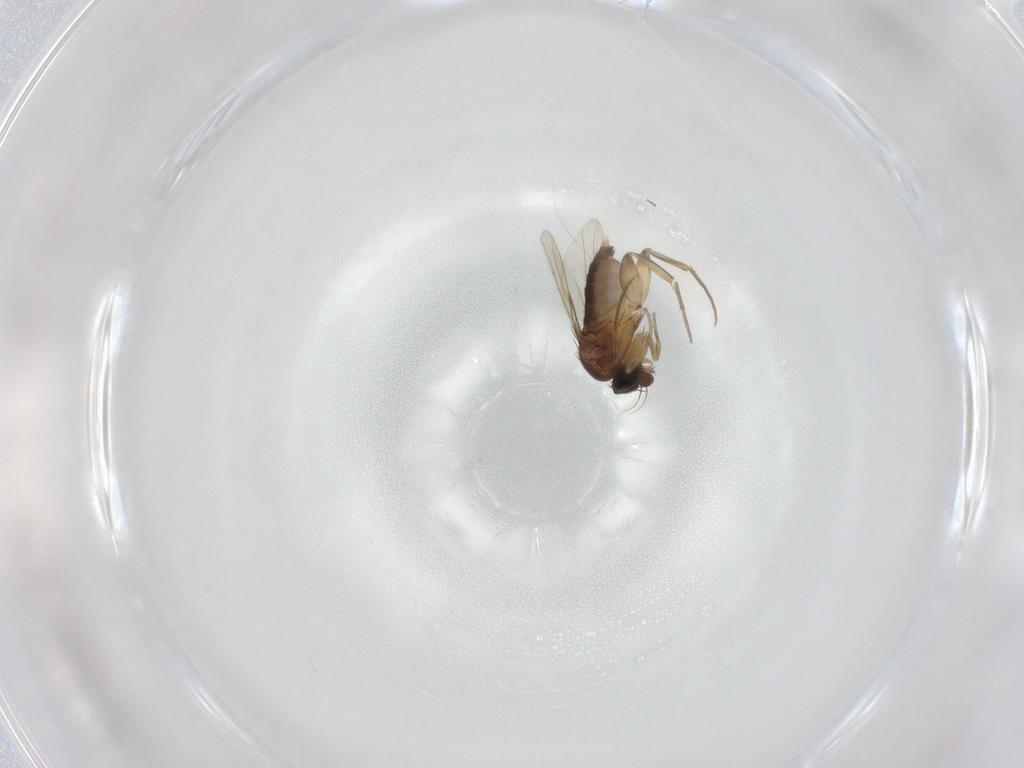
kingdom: Animalia
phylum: Arthropoda
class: Insecta
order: Diptera
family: Phoridae
